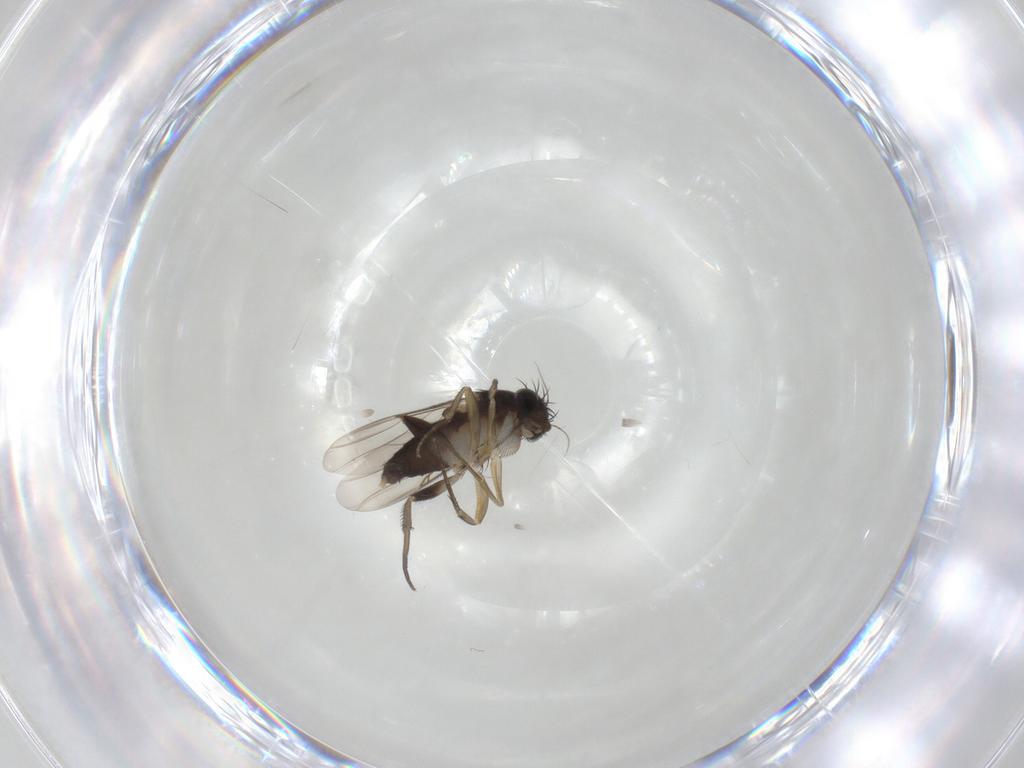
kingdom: Animalia
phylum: Arthropoda
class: Insecta
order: Diptera
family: Phoridae
